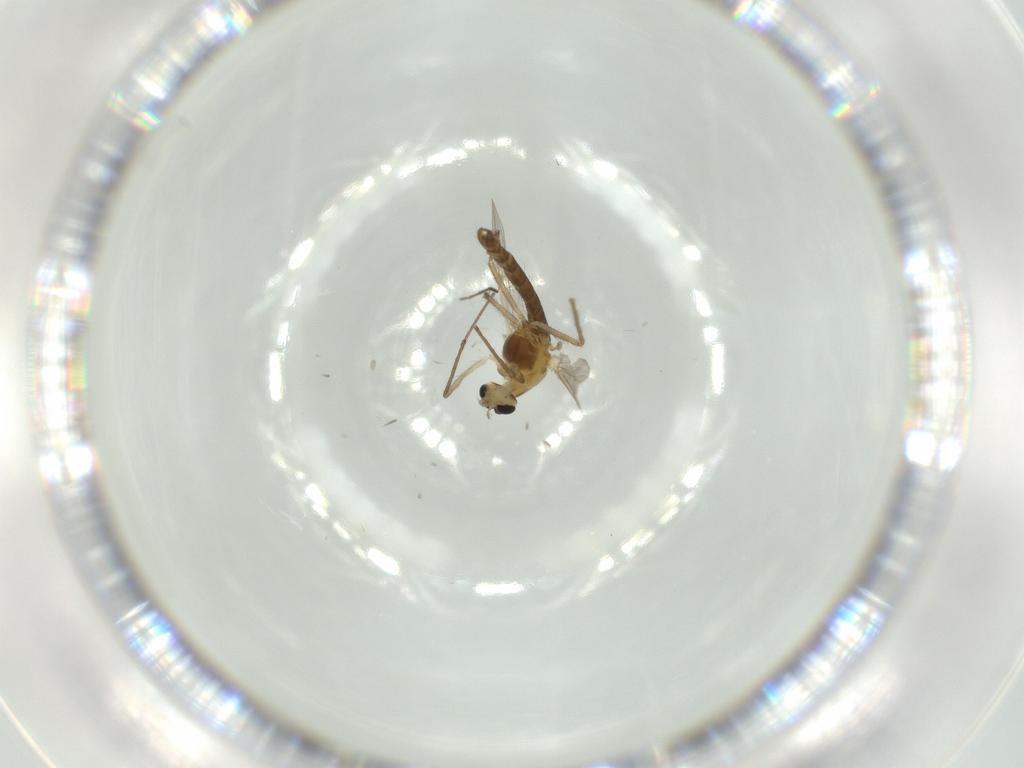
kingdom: Animalia
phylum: Arthropoda
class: Insecta
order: Diptera
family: Chironomidae
